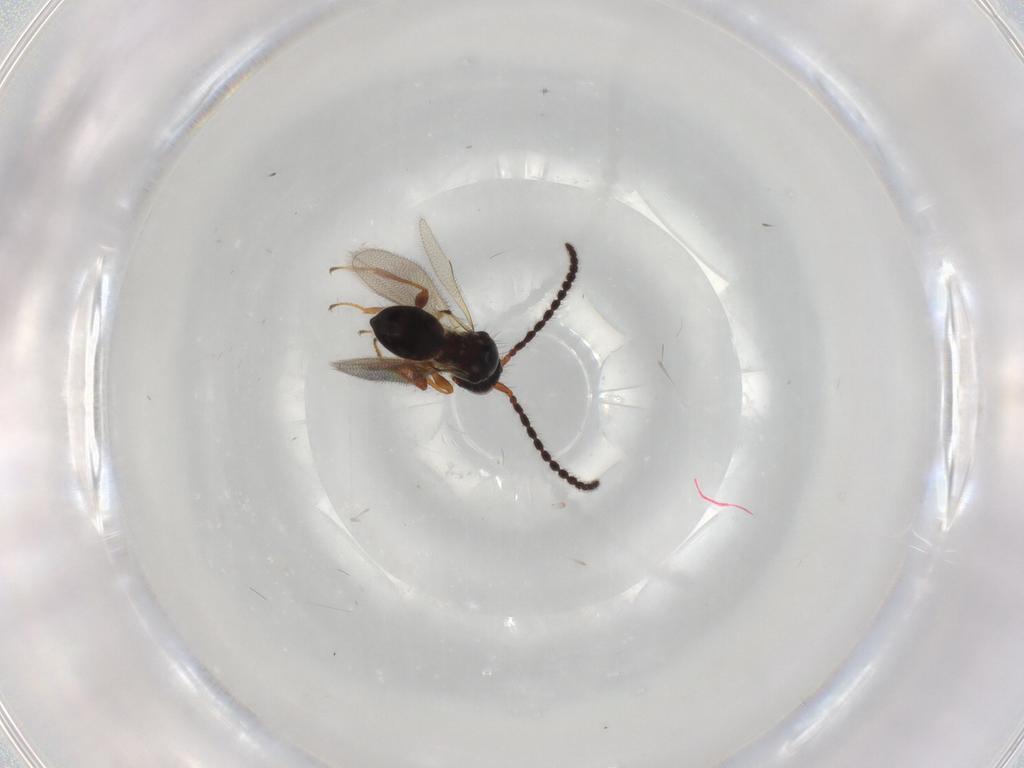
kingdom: Animalia
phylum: Arthropoda
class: Insecta
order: Hymenoptera
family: Diapriidae
